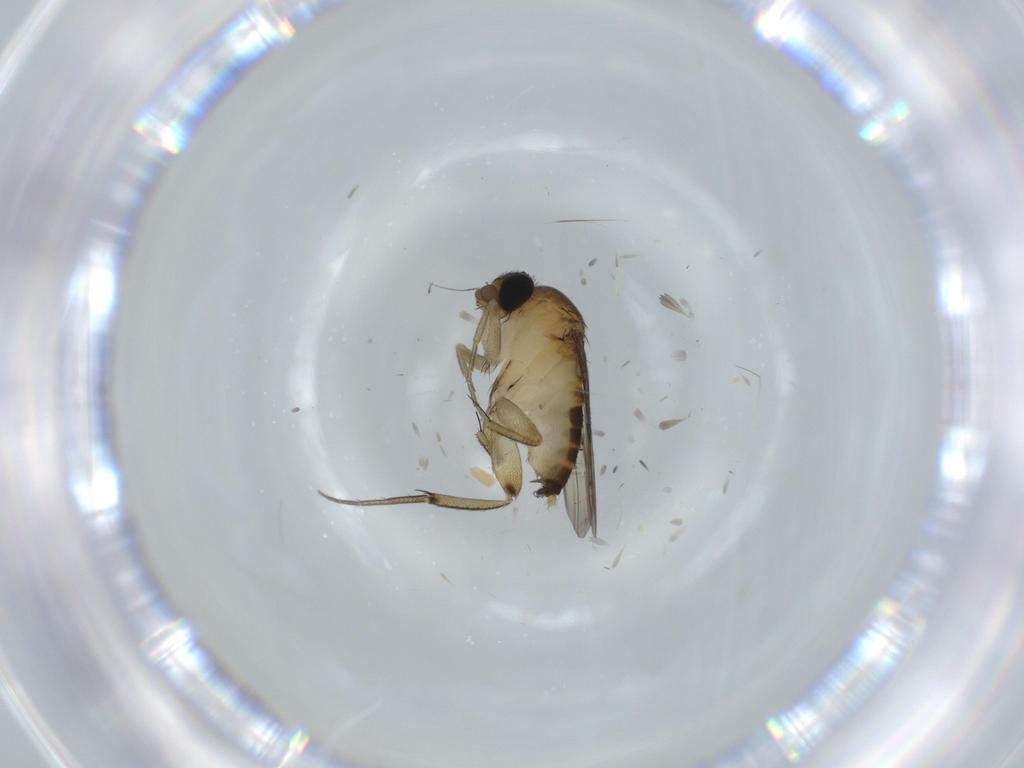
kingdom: Animalia
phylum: Arthropoda
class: Insecta
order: Diptera
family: Phoridae
